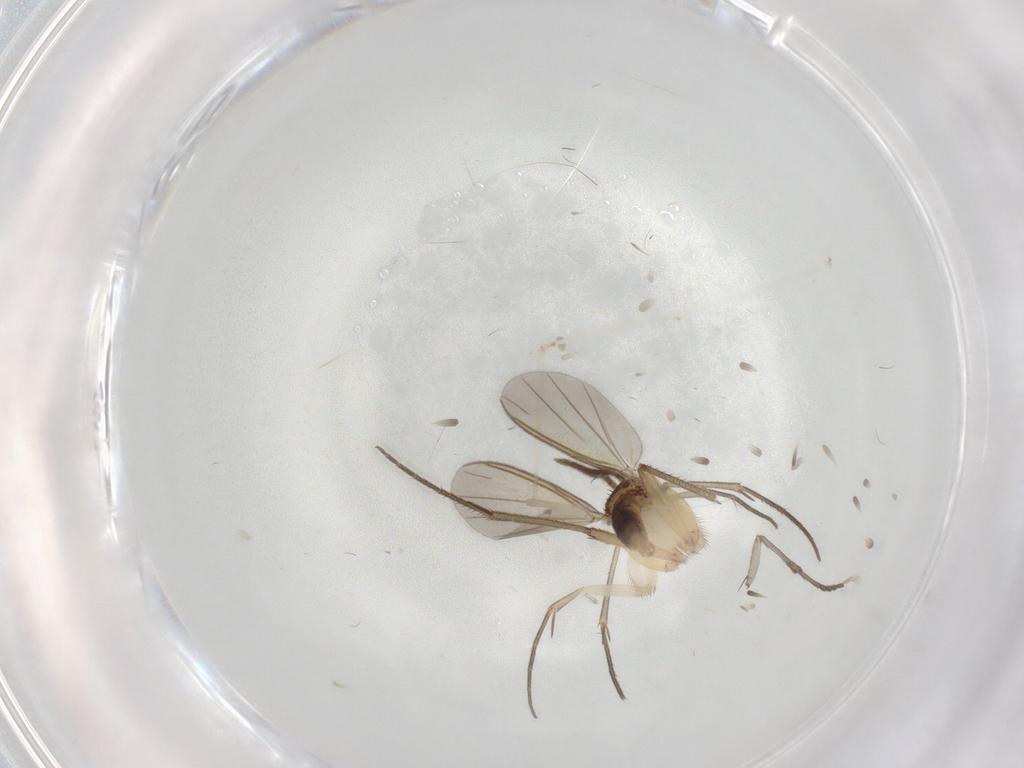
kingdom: Animalia
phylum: Arthropoda
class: Insecta
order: Diptera
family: Mycetophilidae
